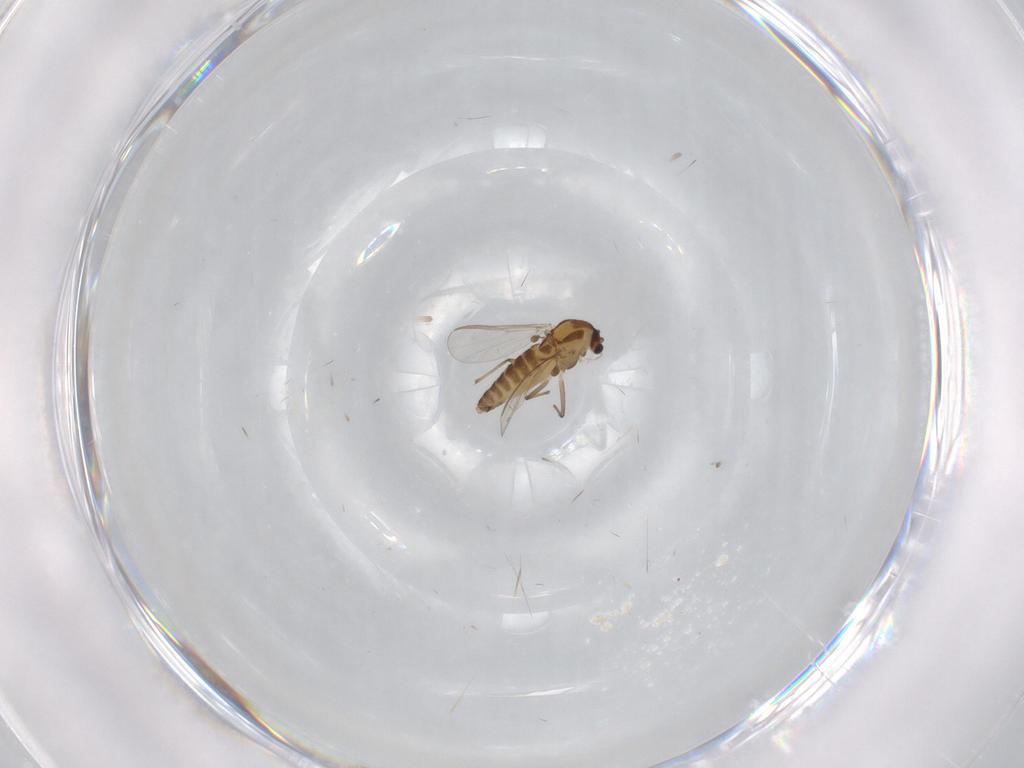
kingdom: Animalia
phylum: Arthropoda
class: Insecta
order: Diptera
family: Chironomidae
